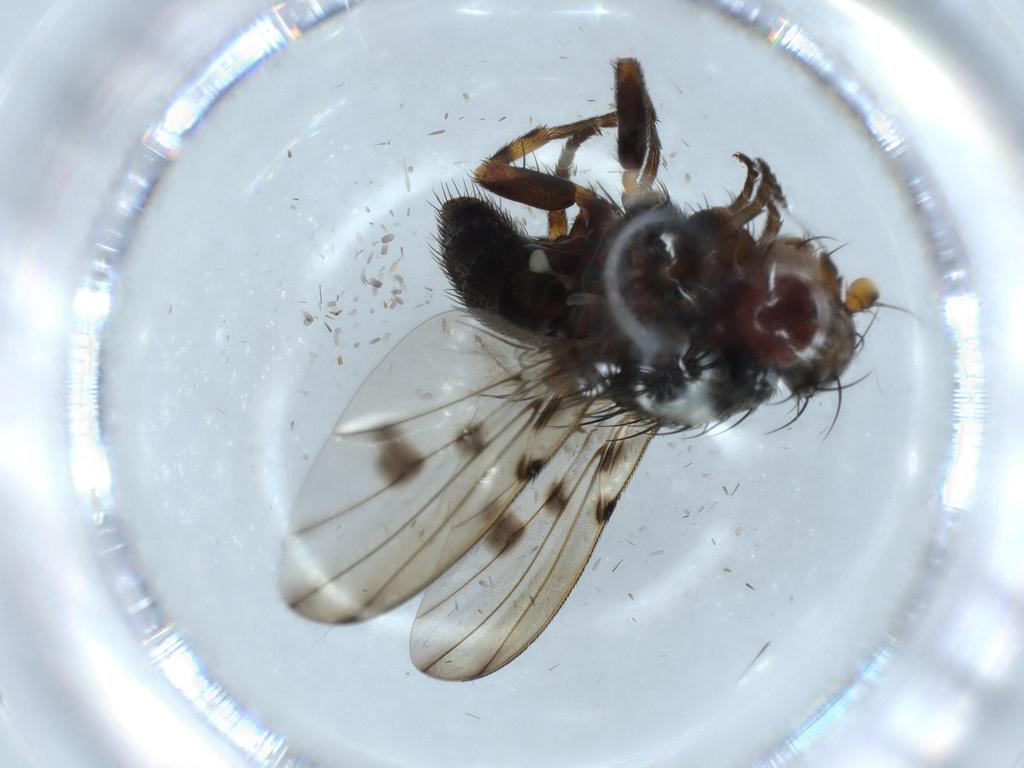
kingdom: Animalia
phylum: Arthropoda
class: Insecta
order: Diptera
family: Odiniidae
